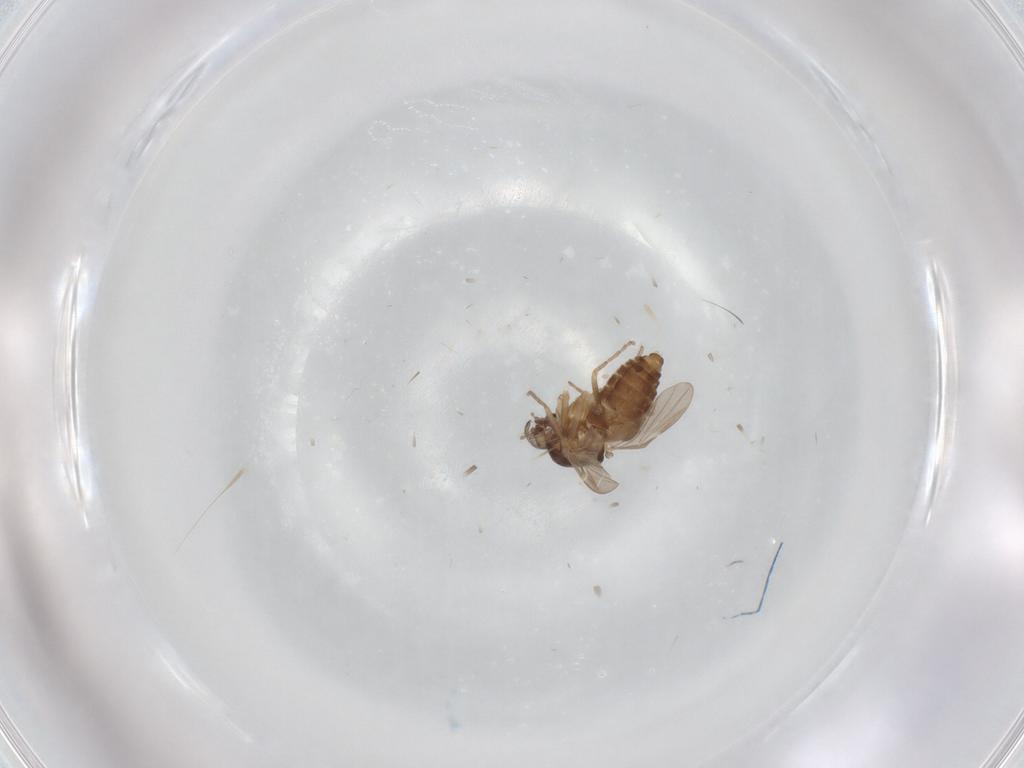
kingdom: Animalia
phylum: Arthropoda
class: Insecta
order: Diptera
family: Ceratopogonidae
